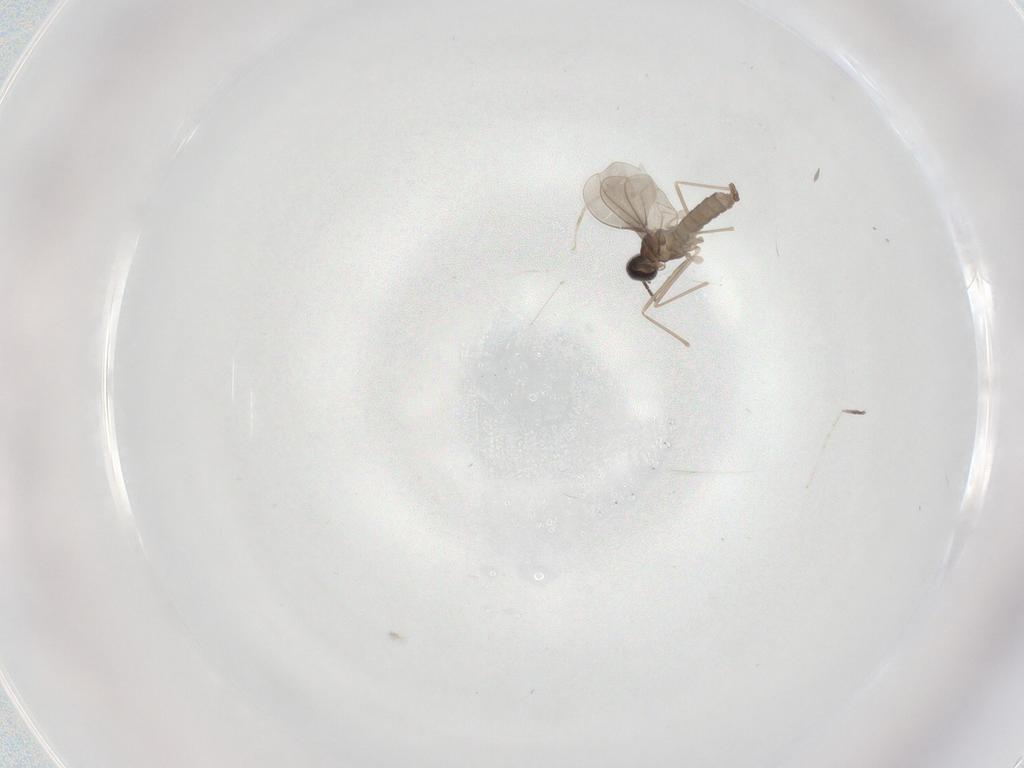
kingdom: Animalia
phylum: Arthropoda
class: Insecta
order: Diptera
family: Cecidomyiidae
